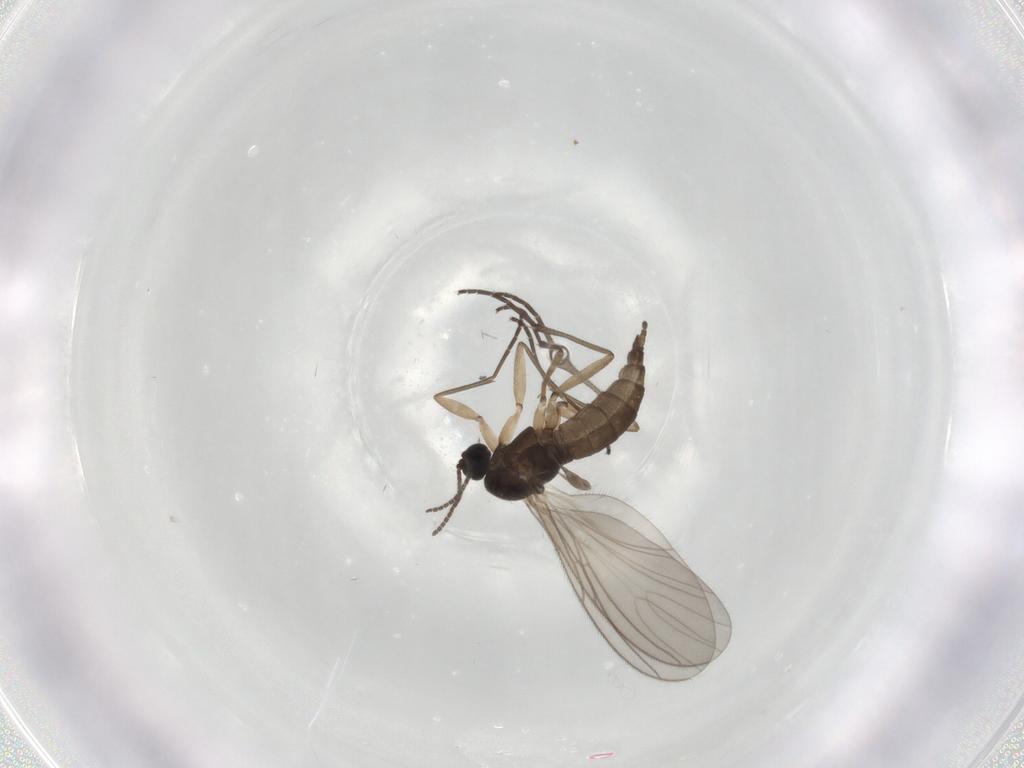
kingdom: Animalia
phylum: Arthropoda
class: Insecta
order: Diptera
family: Sciaridae
